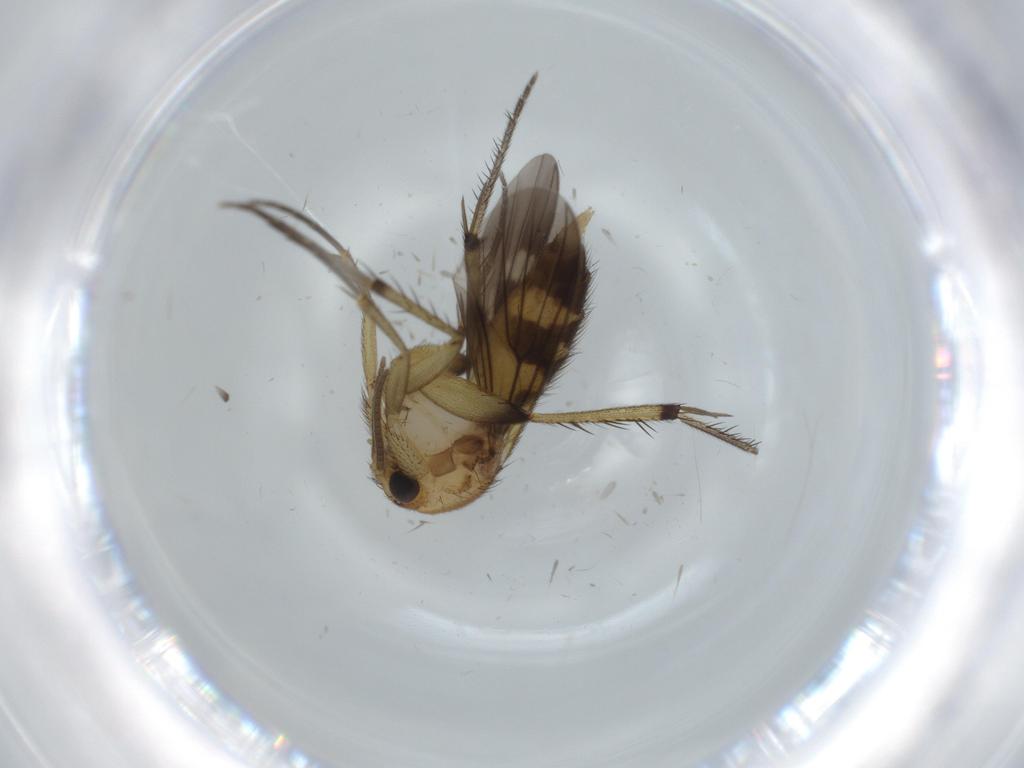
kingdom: Animalia
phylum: Arthropoda
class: Insecta
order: Diptera
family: Mycetophilidae
